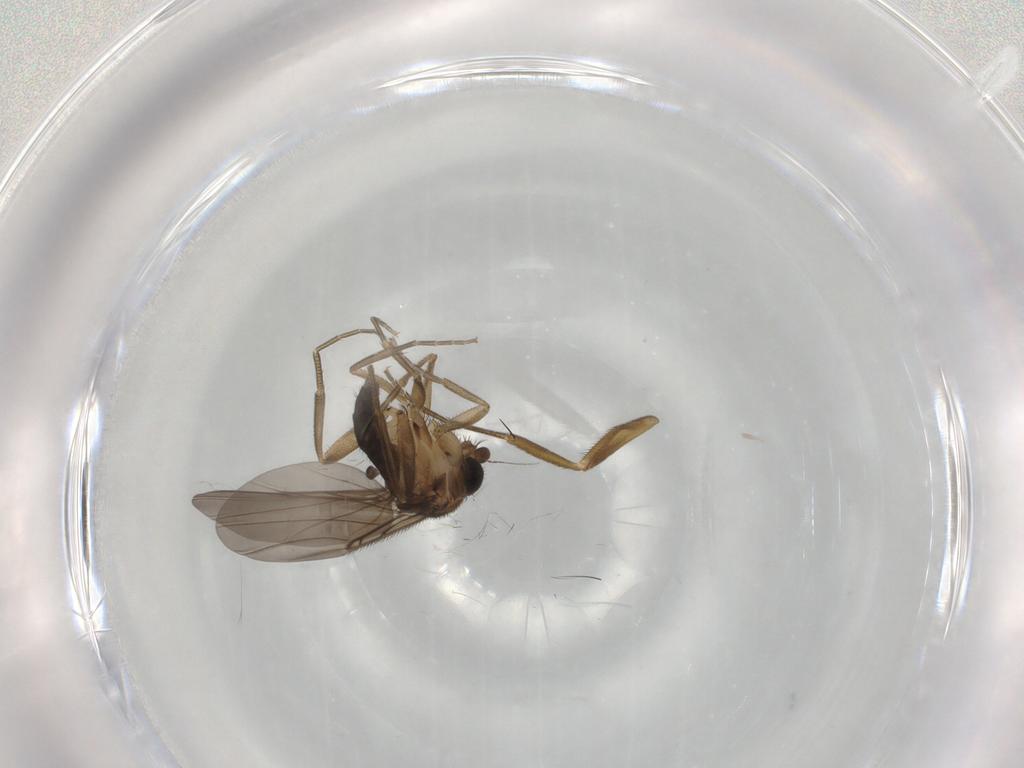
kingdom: Animalia
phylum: Arthropoda
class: Insecta
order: Diptera
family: Phoridae
